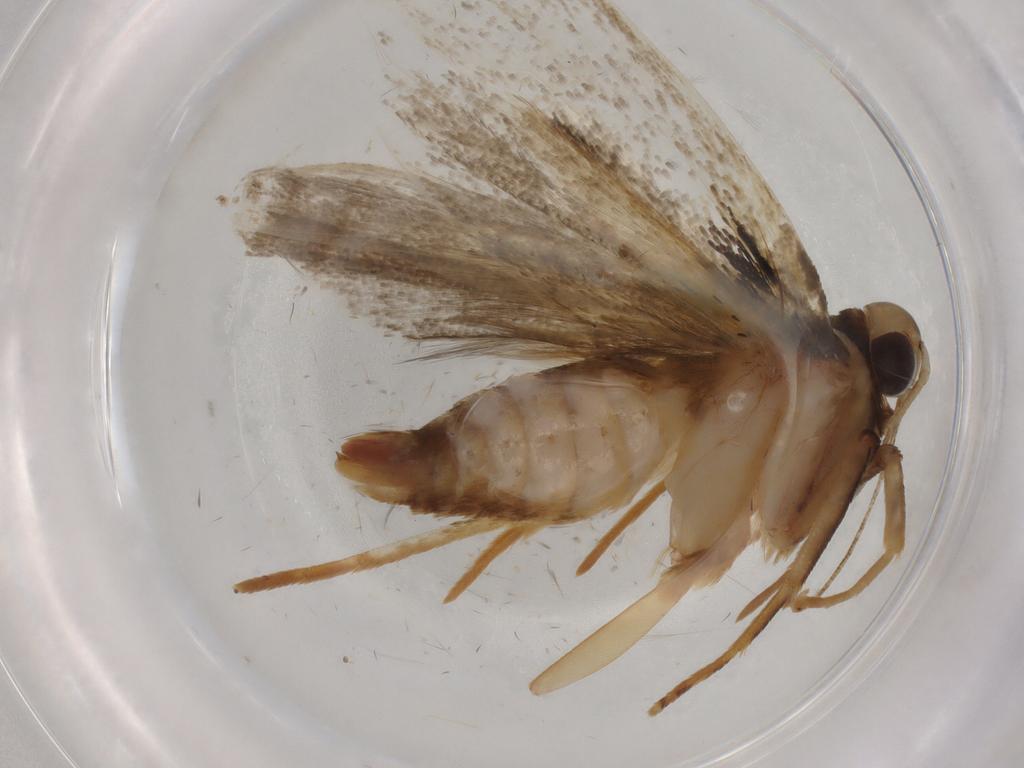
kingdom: Animalia
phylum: Arthropoda
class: Insecta
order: Lepidoptera
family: Gelechiidae
